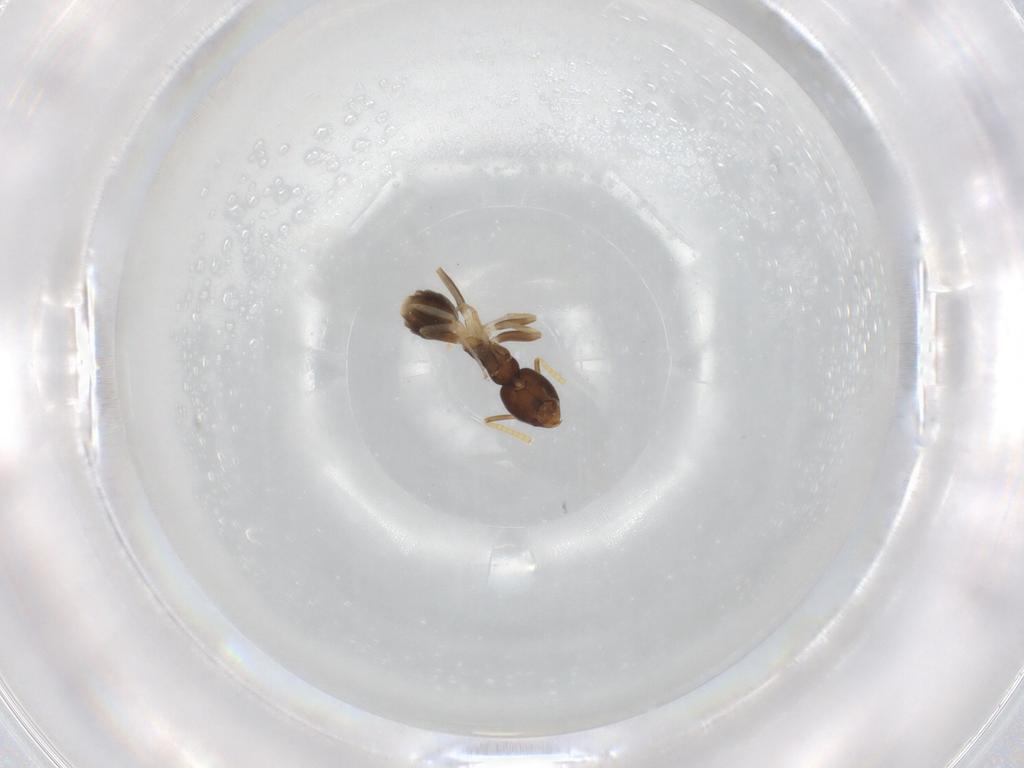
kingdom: Animalia
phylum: Arthropoda
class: Insecta
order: Hymenoptera
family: Formicidae
